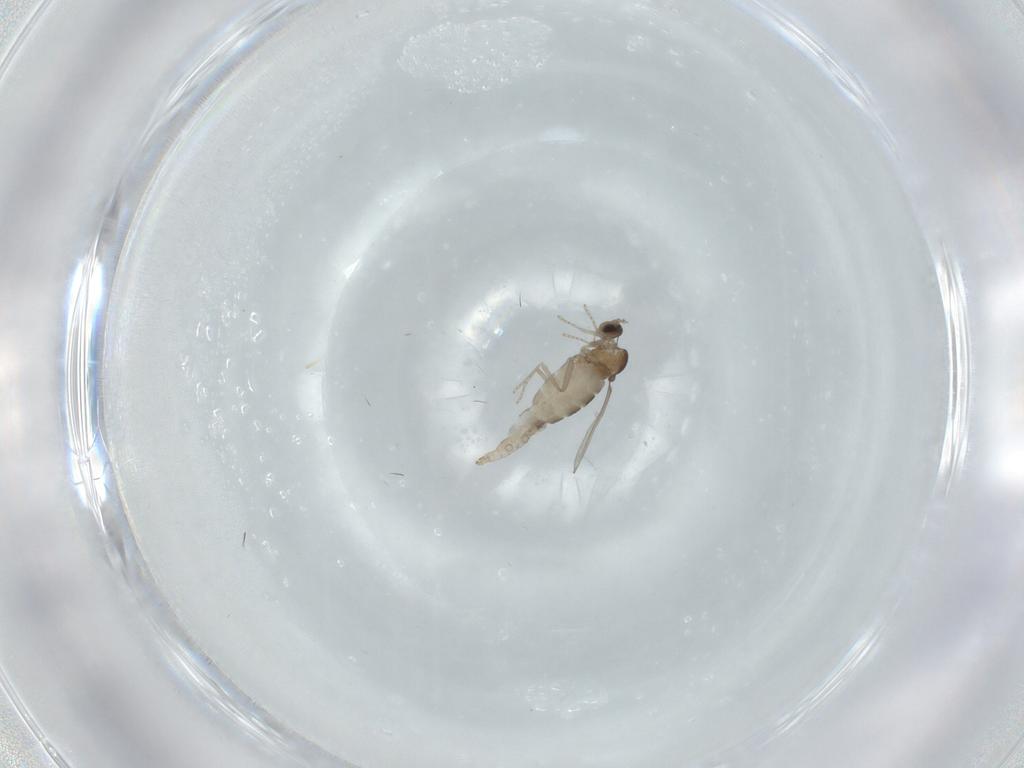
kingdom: Animalia
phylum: Arthropoda
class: Insecta
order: Diptera
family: Cecidomyiidae
